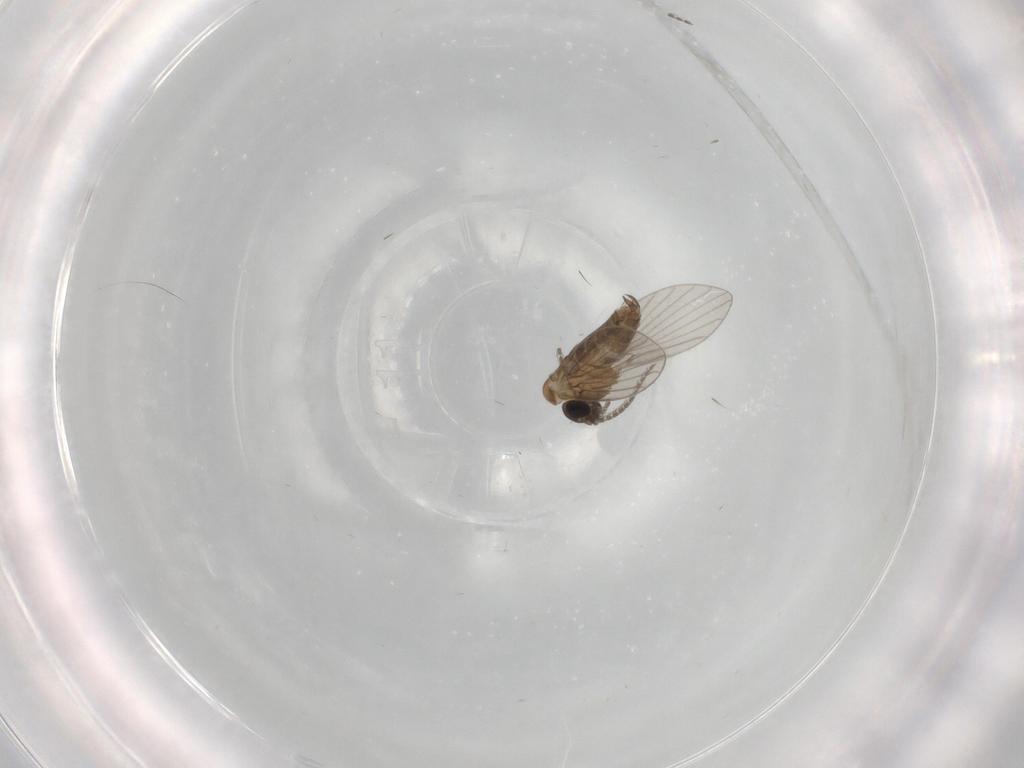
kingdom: Animalia
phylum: Arthropoda
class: Insecta
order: Diptera
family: Psychodidae
